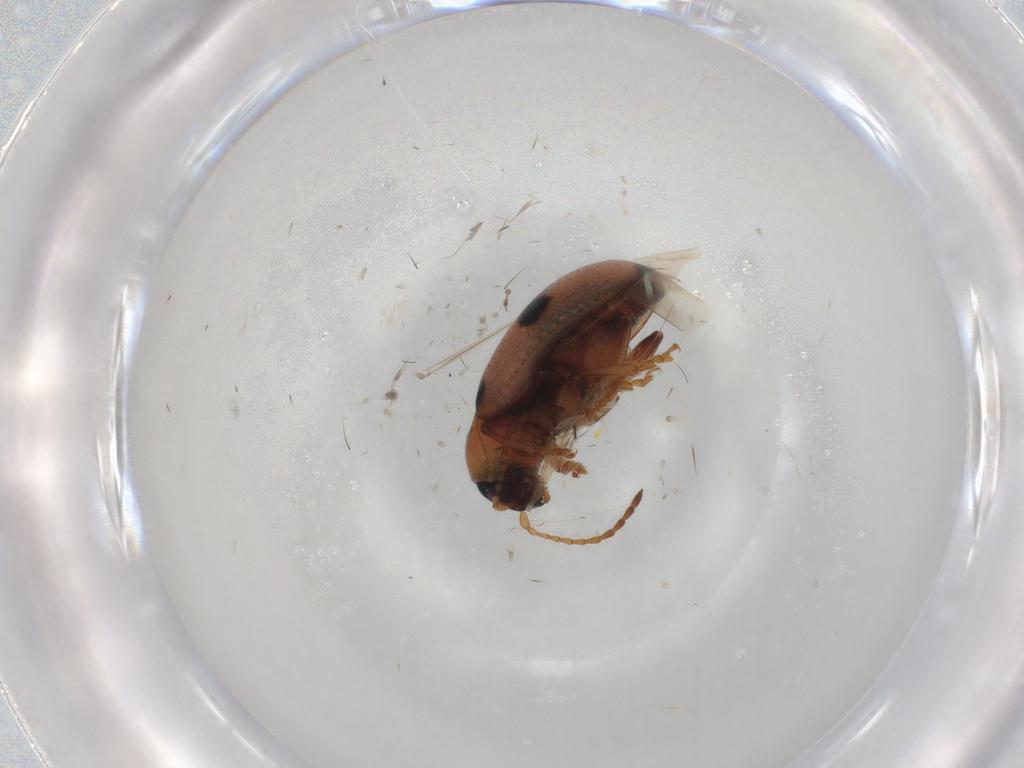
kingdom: Animalia
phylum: Arthropoda
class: Insecta
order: Coleoptera
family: Chrysomelidae
